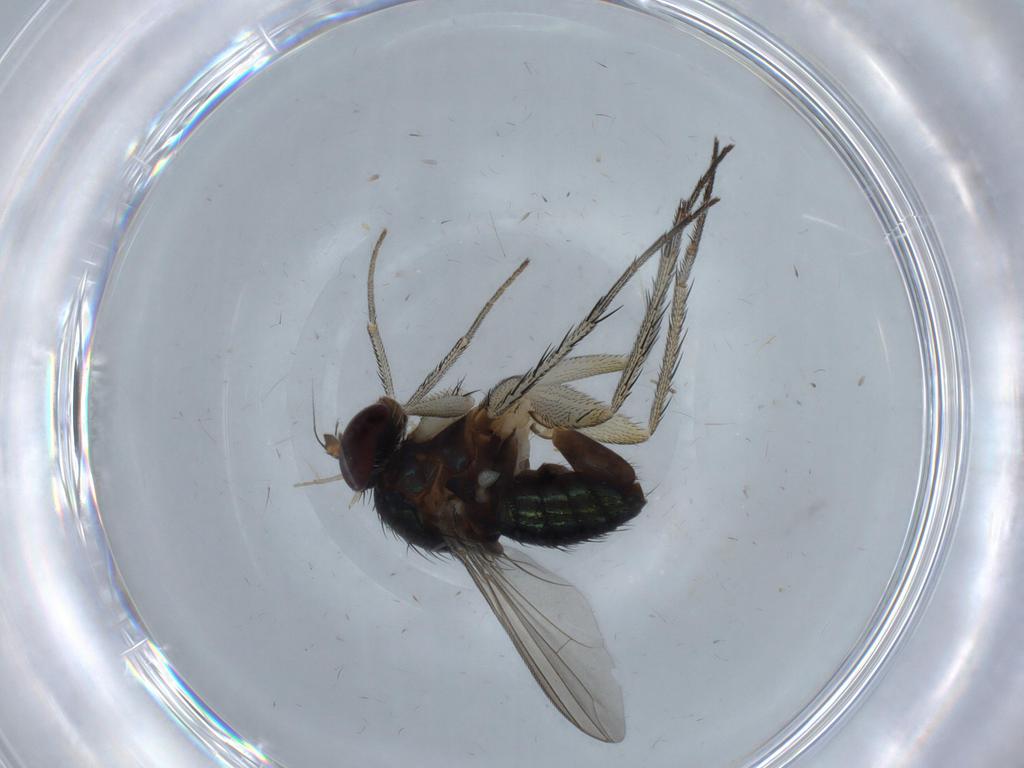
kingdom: Animalia
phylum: Arthropoda
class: Insecta
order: Diptera
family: Dolichopodidae
